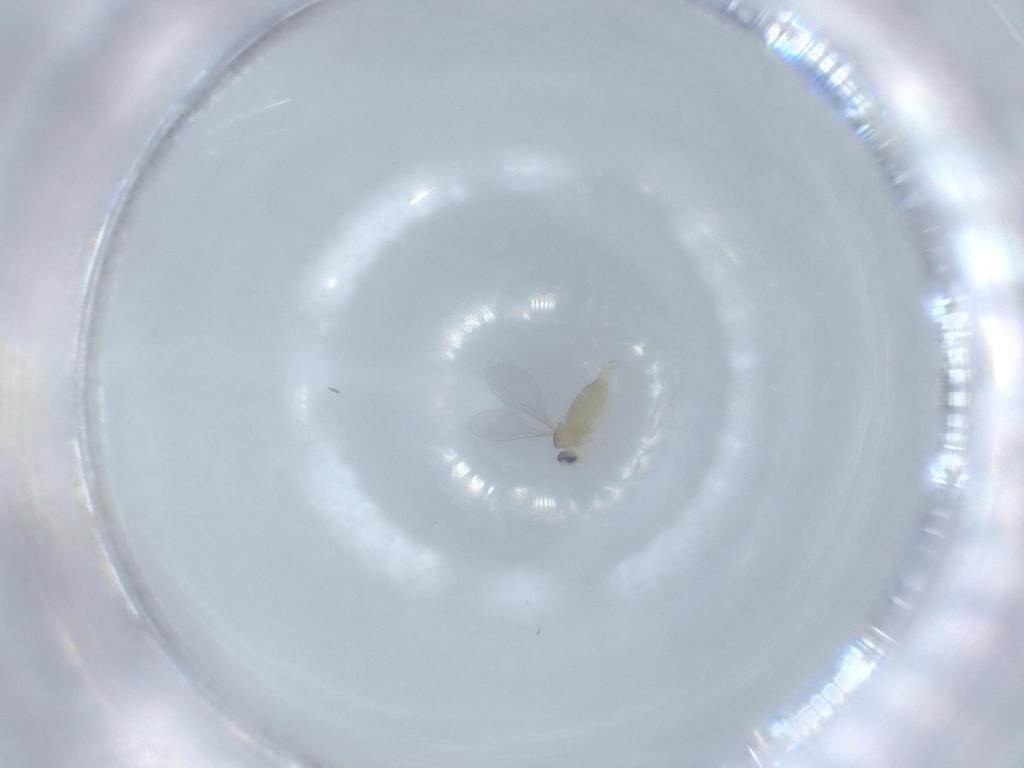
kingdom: Animalia
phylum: Arthropoda
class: Insecta
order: Diptera
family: Cecidomyiidae
